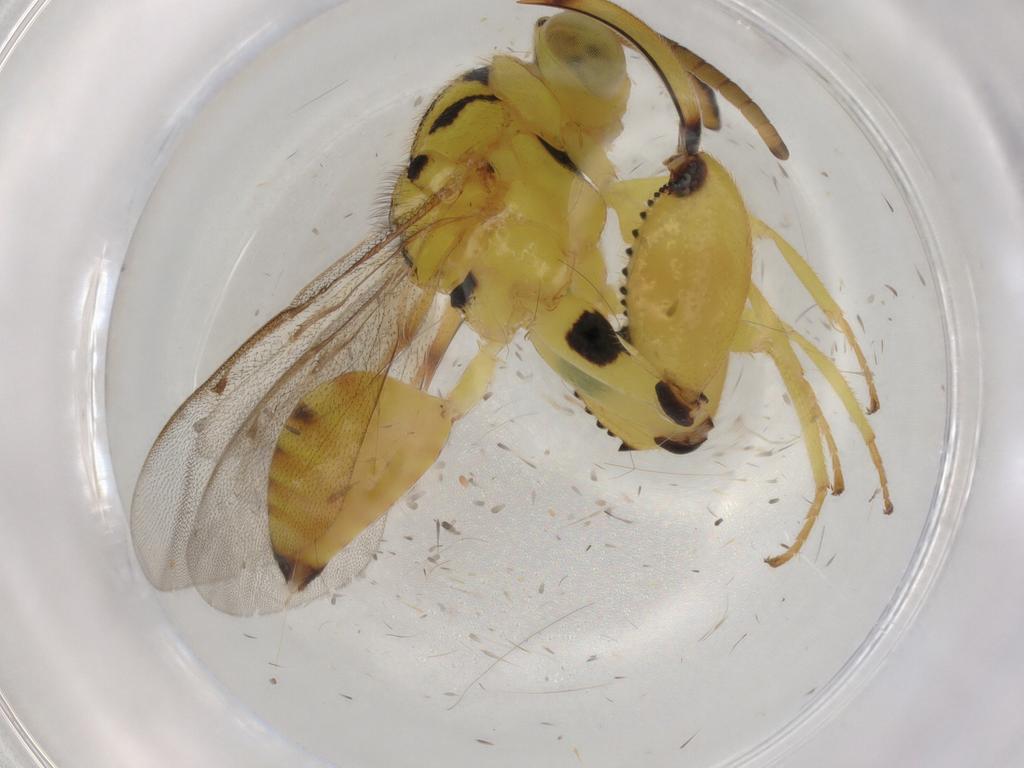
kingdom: Animalia
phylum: Arthropoda
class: Insecta
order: Hymenoptera
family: Chalcididae
